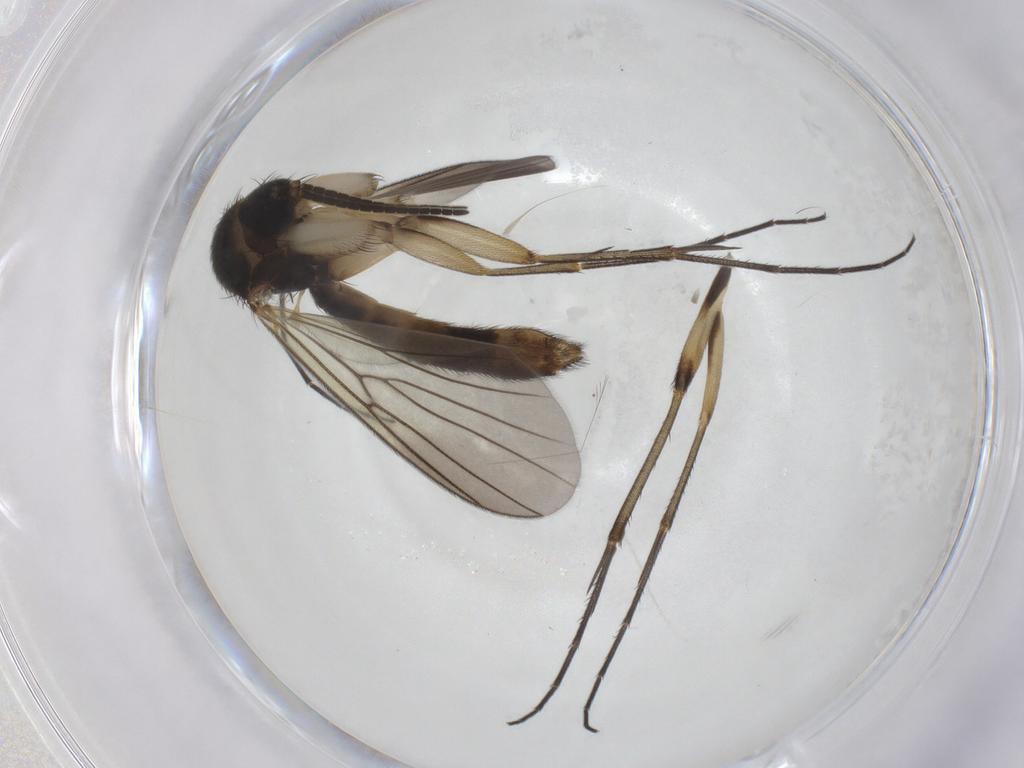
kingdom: Animalia
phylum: Arthropoda
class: Insecta
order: Diptera
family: Mycetophilidae
